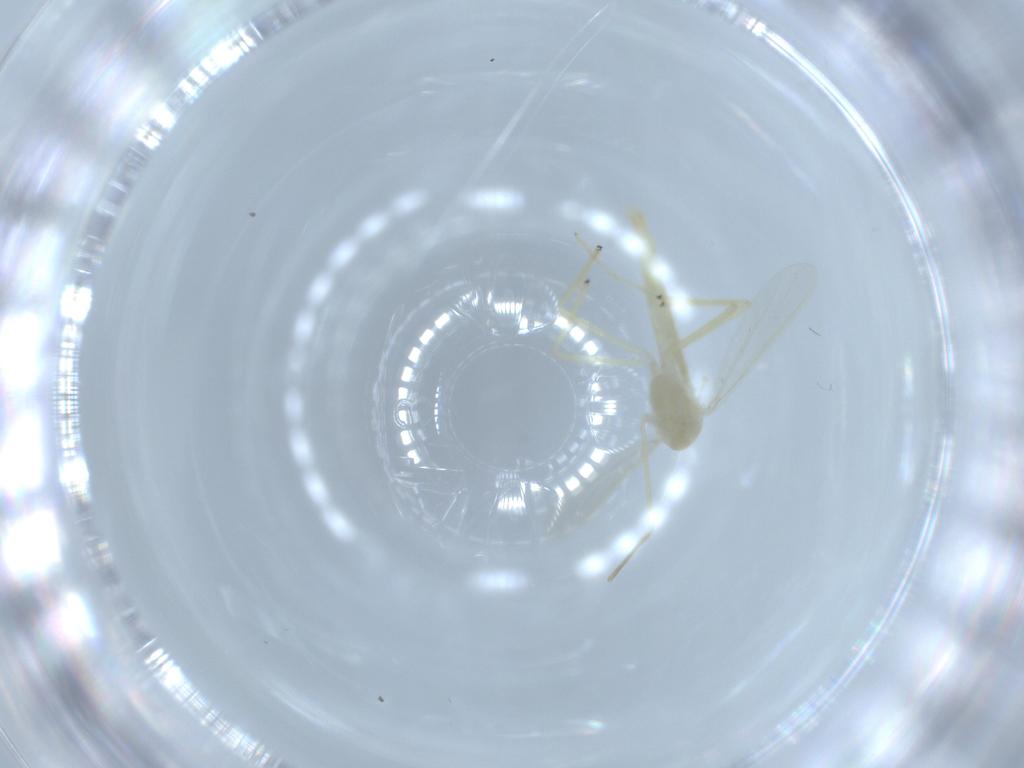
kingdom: Animalia
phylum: Arthropoda
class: Insecta
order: Diptera
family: Chironomidae
